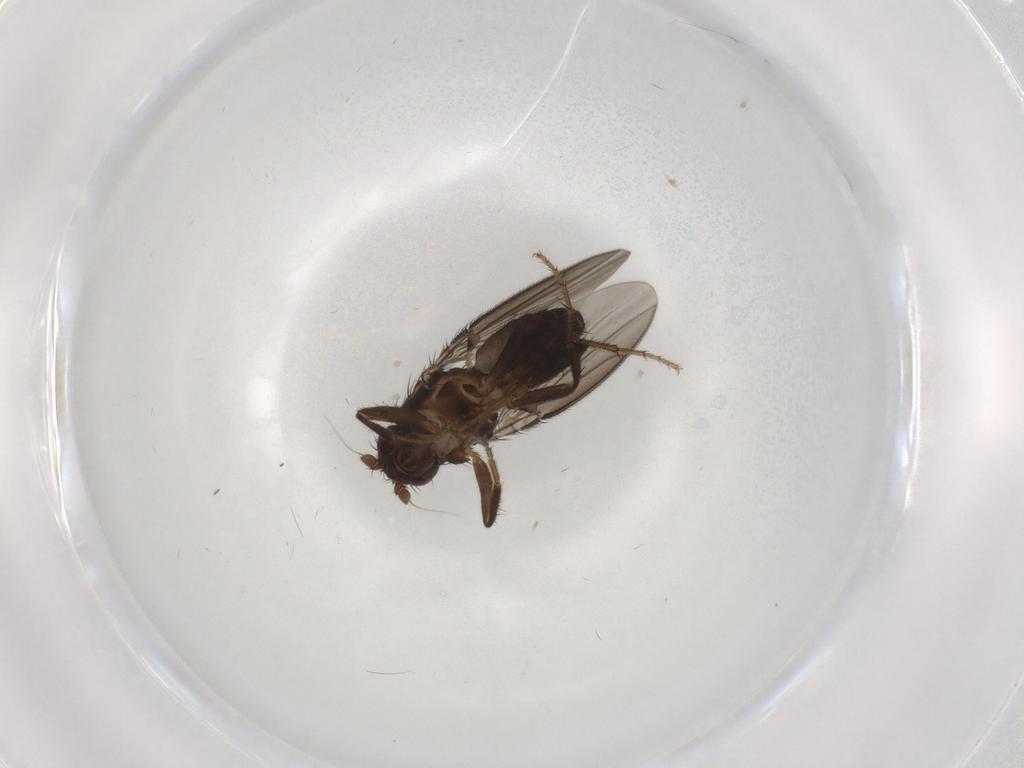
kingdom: Animalia
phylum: Arthropoda
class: Insecta
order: Diptera
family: Sphaeroceridae
